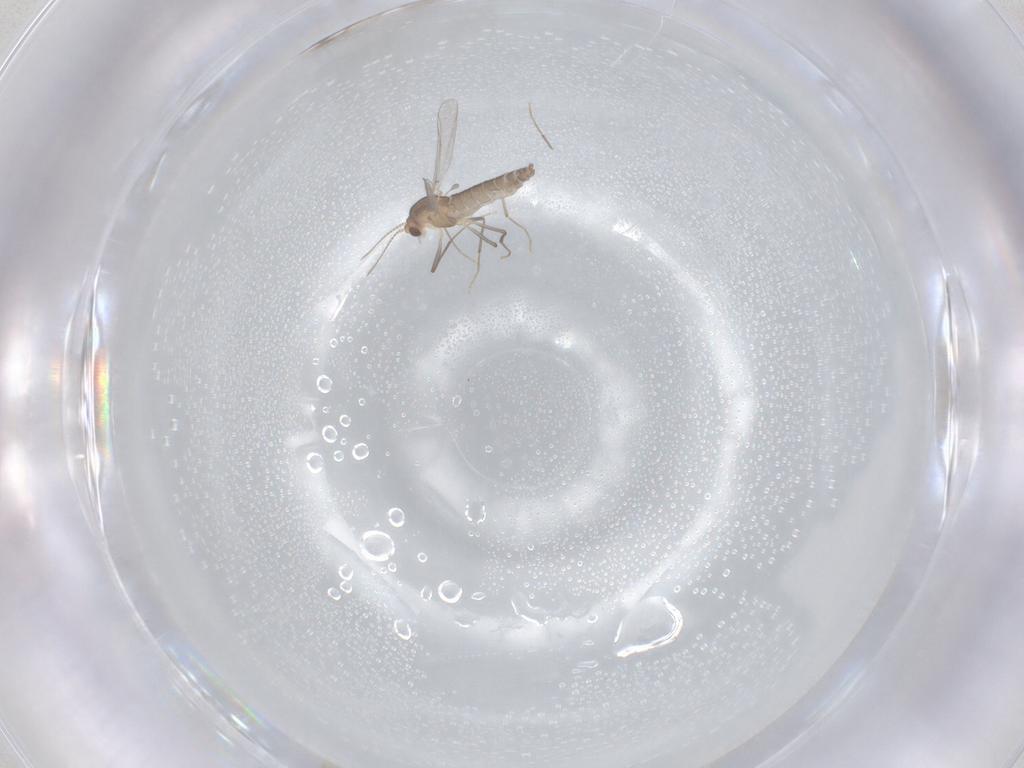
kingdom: Animalia
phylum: Arthropoda
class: Insecta
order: Diptera
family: Chironomidae
